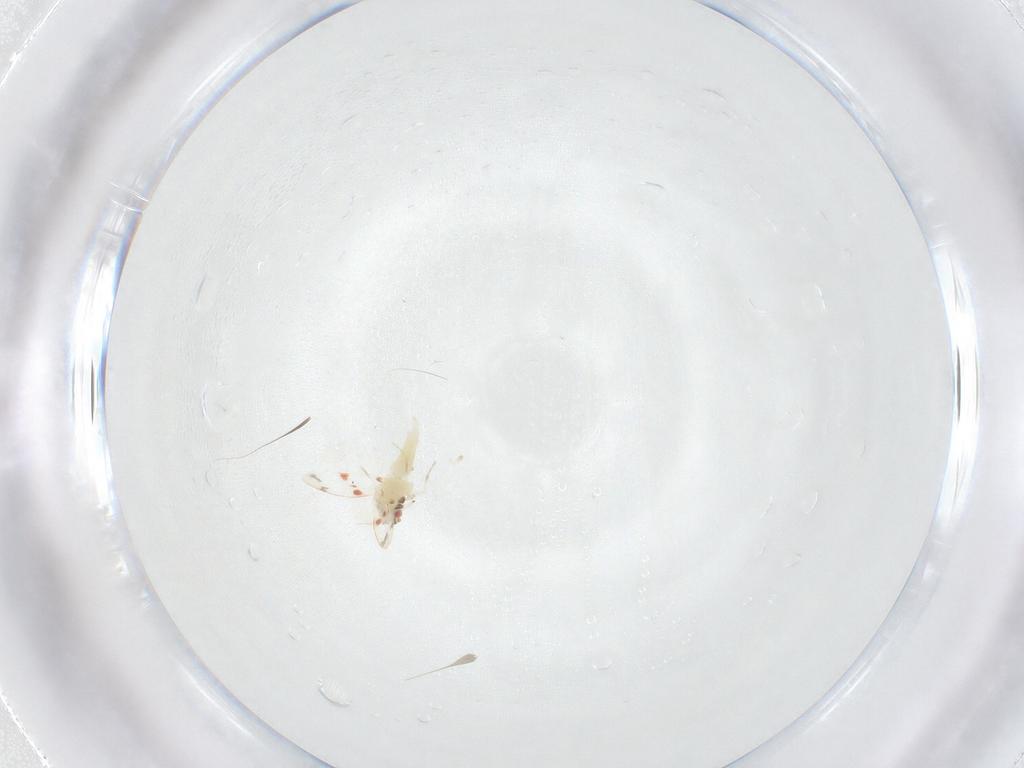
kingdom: Animalia
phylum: Arthropoda
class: Insecta
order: Hemiptera
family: Aleyrodidae
